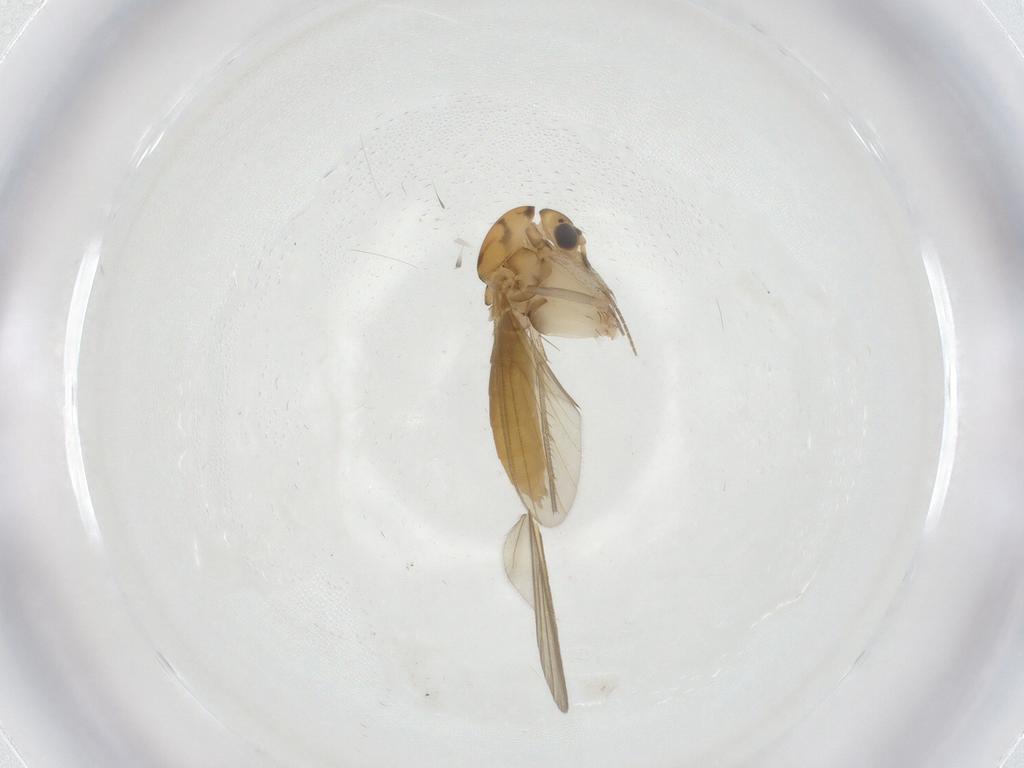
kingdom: Animalia
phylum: Arthropoda
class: Insecta
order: Diptera
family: Mycetophilidae
